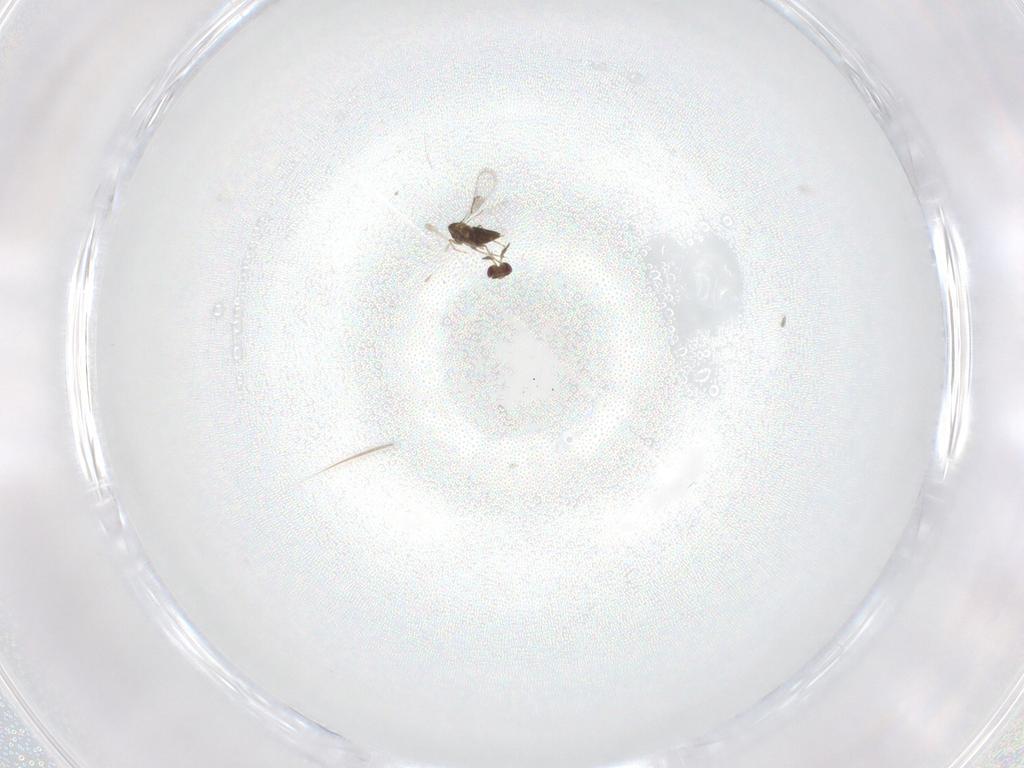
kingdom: Animalia
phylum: Arthropoda
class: Insecta
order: Hymenoptera
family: Trichogrammatidae
